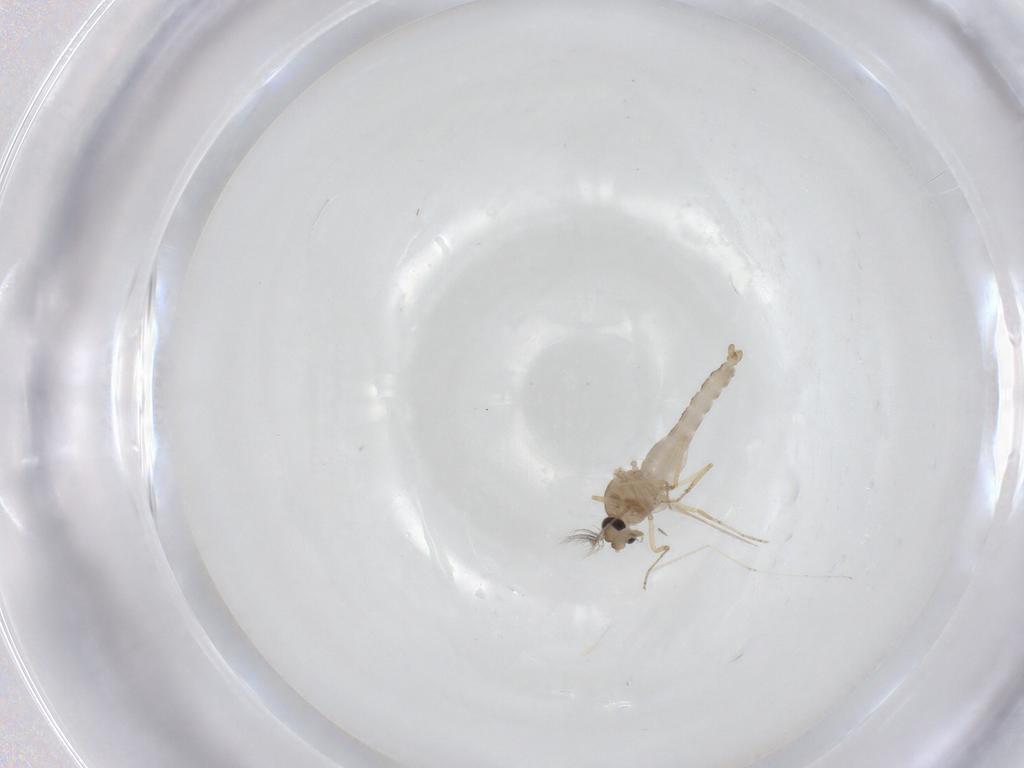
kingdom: Animalia
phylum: Arthropoda
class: Insecta
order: Diptera
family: Ceratopogonidae
